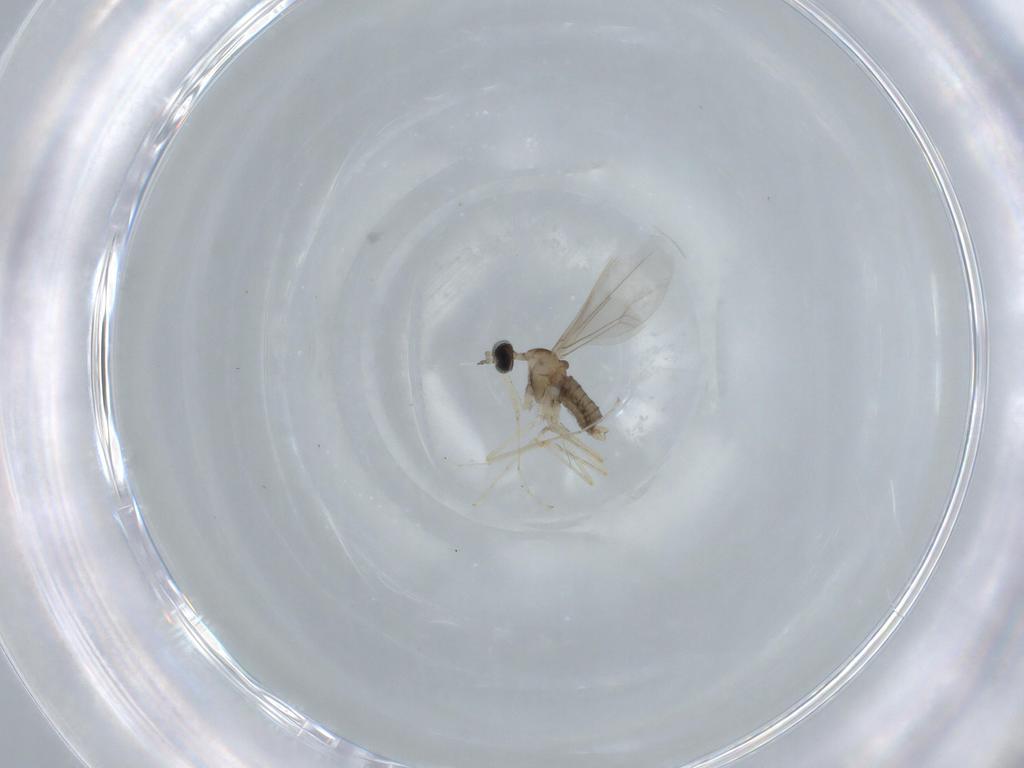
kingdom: Animalia
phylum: Arthropoda
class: Insecta
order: Diptera
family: Cecidomyiidae
